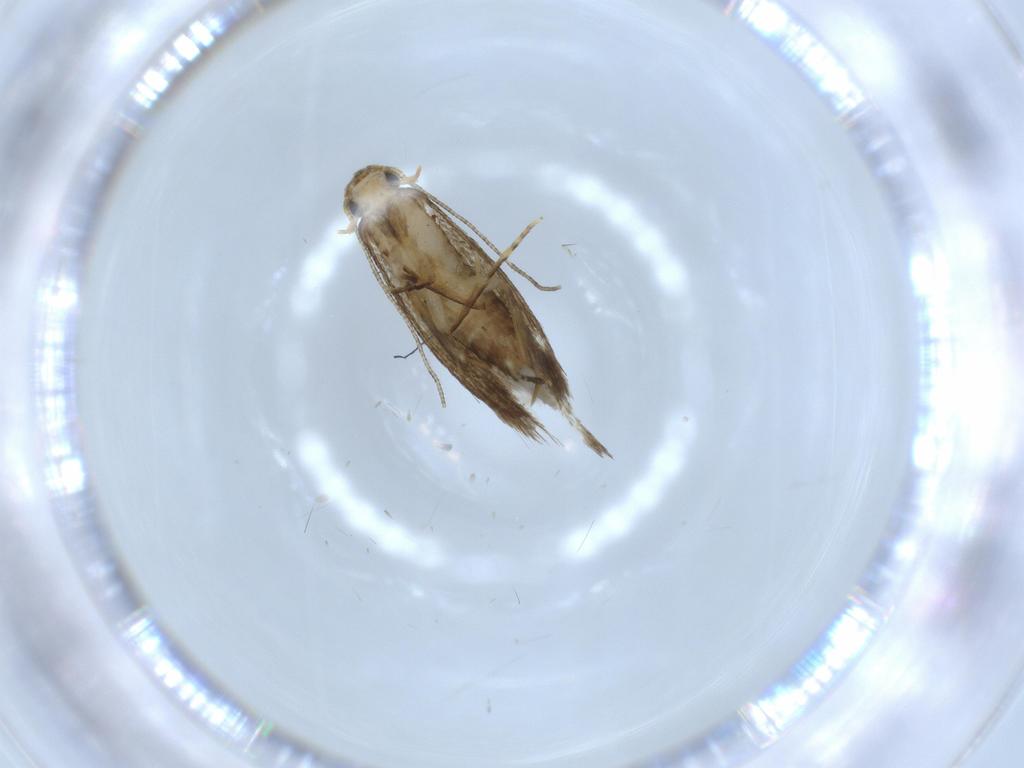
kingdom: Animalia
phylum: Arthropoda
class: Insecta
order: Lepidoptera
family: Tineidae
